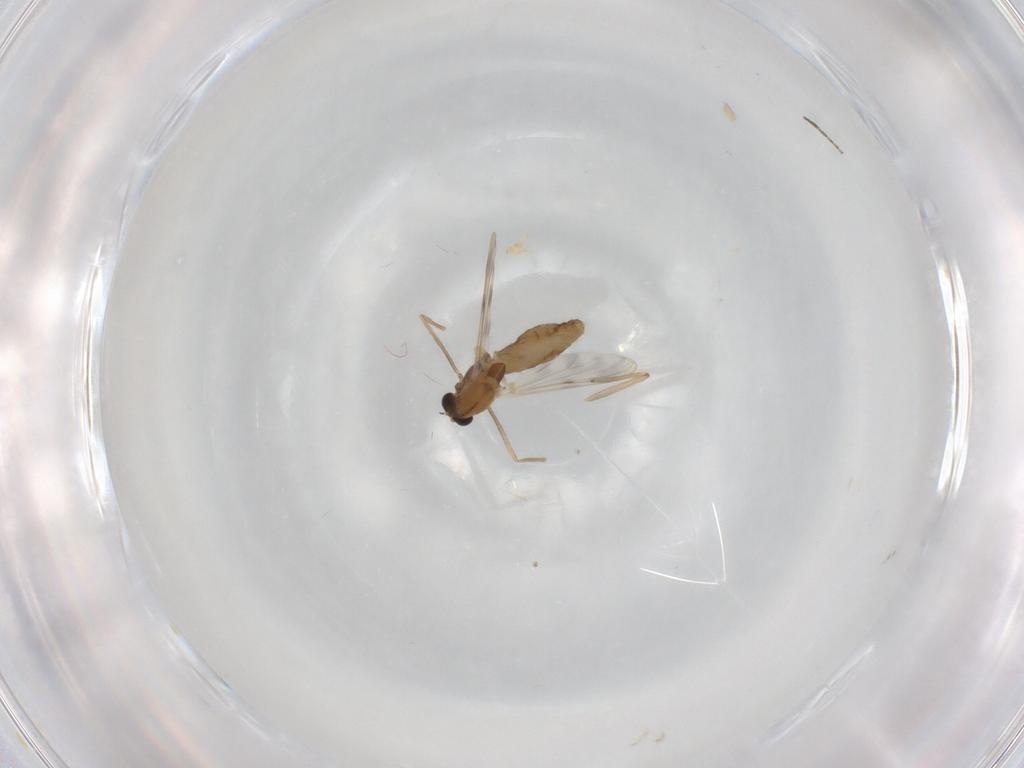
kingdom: Animalia
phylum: Arthropoda
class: Insecta
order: Diptera
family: Chironomidae
